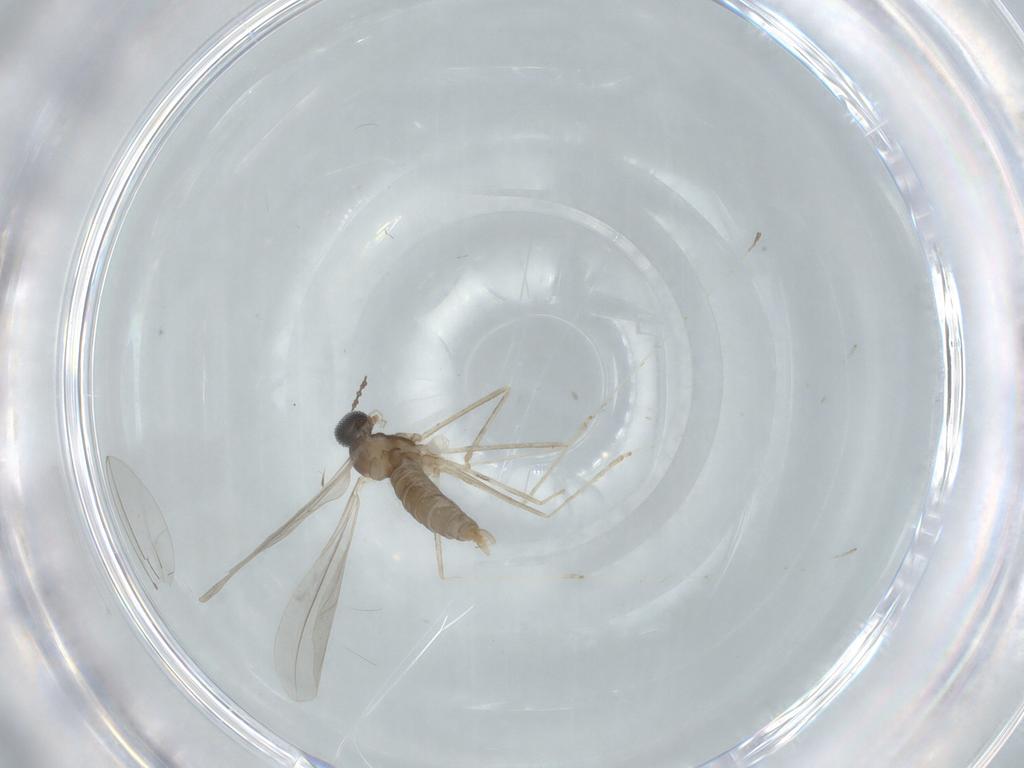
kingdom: Animalia
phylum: Arthropoda
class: Insecta
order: Diptera
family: Cecidomyiidae
